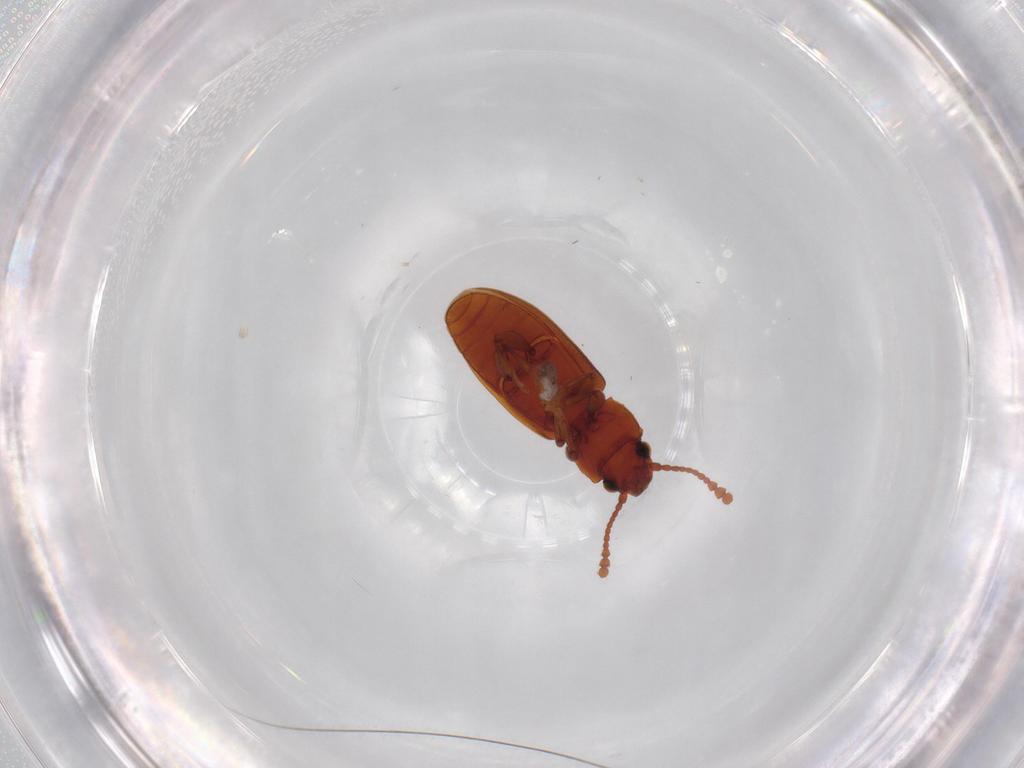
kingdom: Animalia
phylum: Arthropoda
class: Insecta
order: Coleoptera
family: Silvanidae
